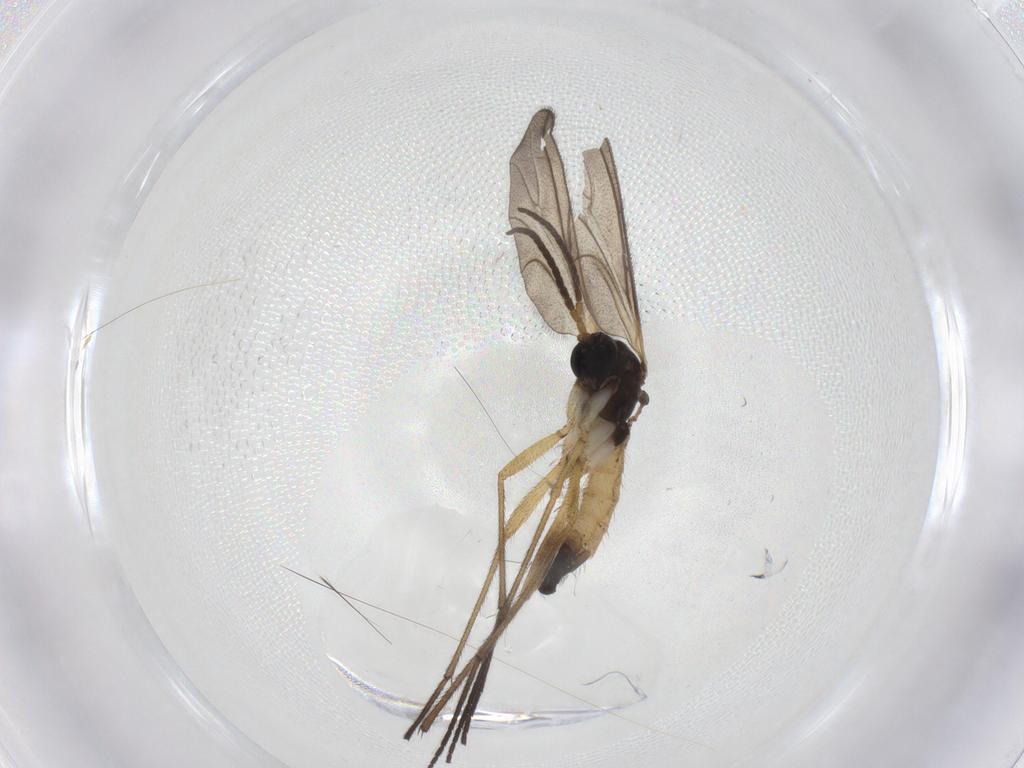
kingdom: Animalia
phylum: Arthropoda
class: Insecta
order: Diptera
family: Sciaridae
